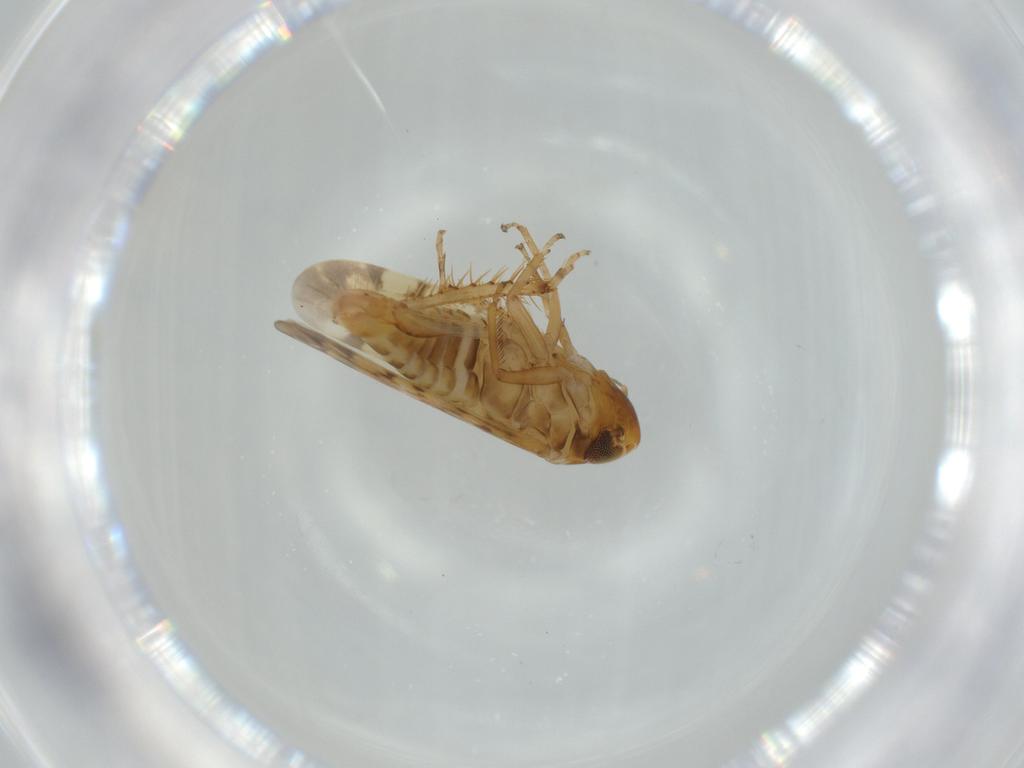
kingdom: Animalia
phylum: Arthropoda
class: Insecta
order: Hemiptera
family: Cicadellidae
